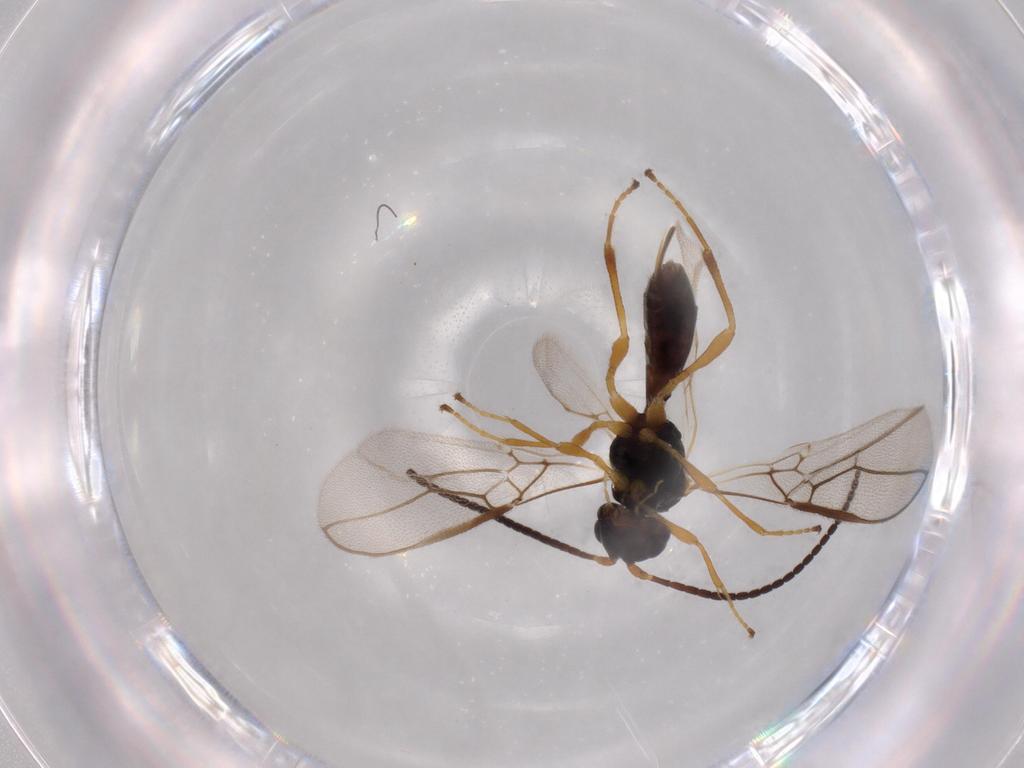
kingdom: Animalia
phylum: Arthropoda
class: Insecta
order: Hymenoptera
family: Braconidae
